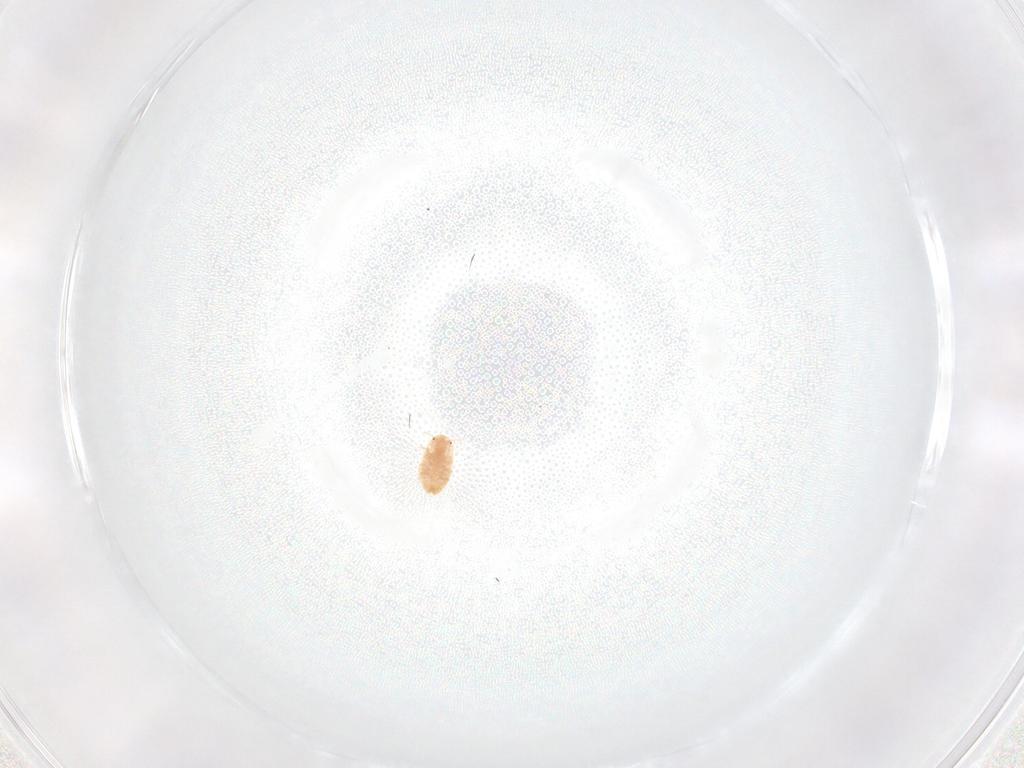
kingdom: Animalia
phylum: Arthropoda
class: Insecta
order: Hemiptera
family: Coccidae
